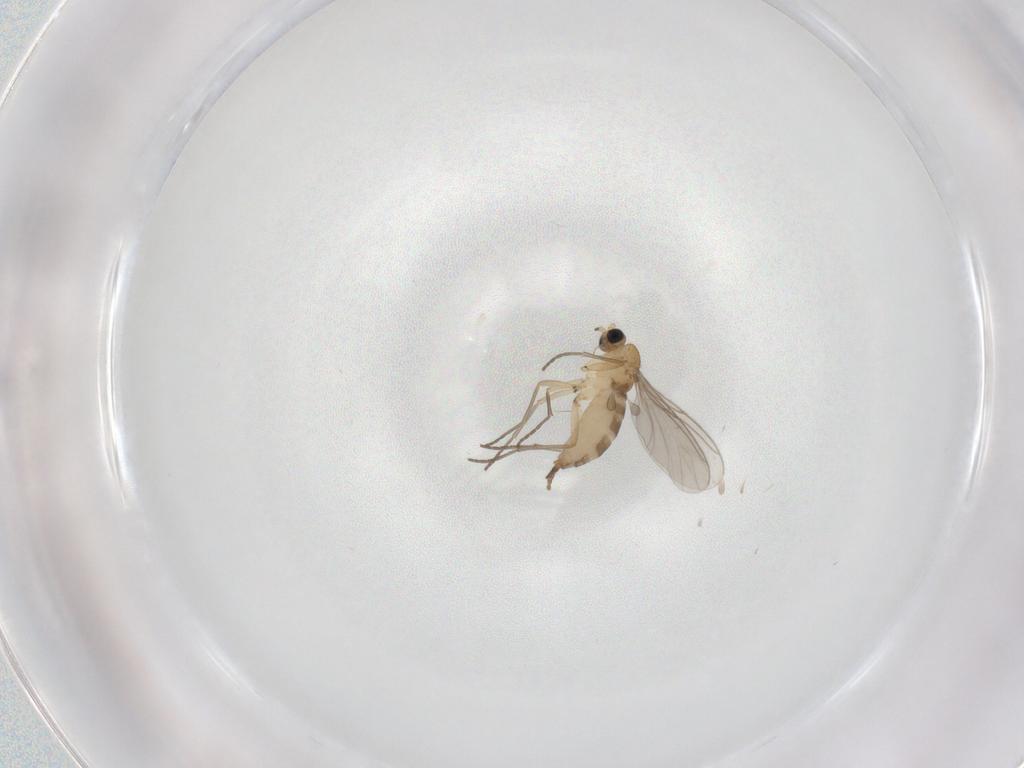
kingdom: Animalia
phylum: Arthropoda
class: Insecta
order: Diptera
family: Sciaridae
